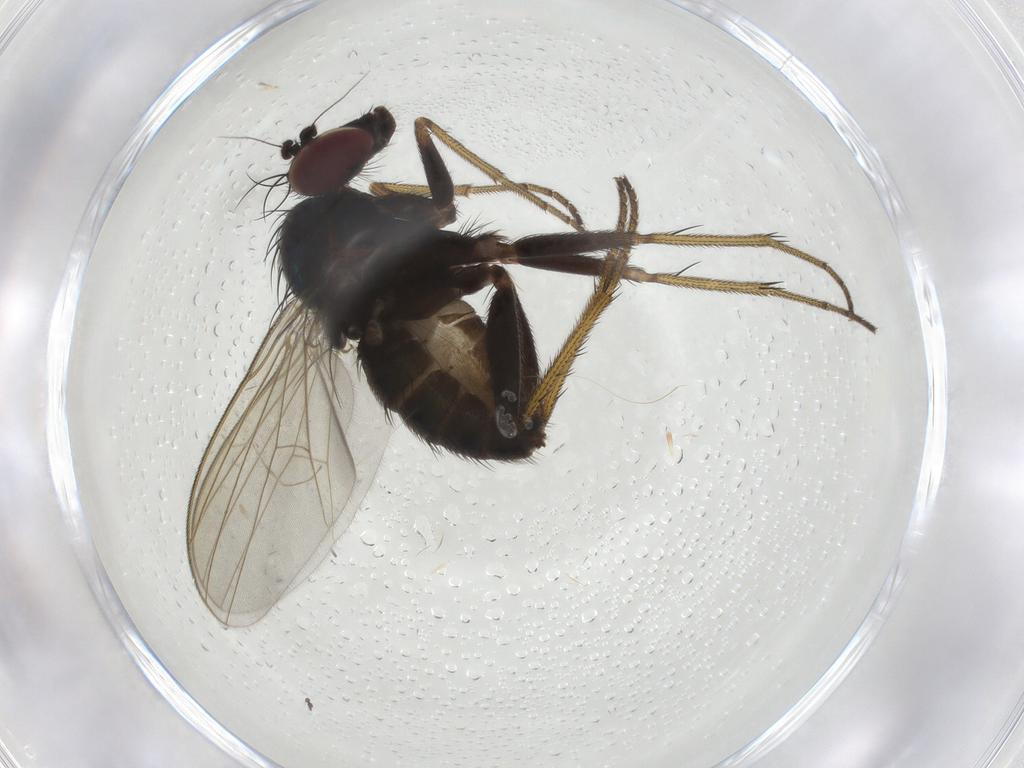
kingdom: Animalia
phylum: Arthropoda
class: Insecta
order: Diptera
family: Dolichopodidae
